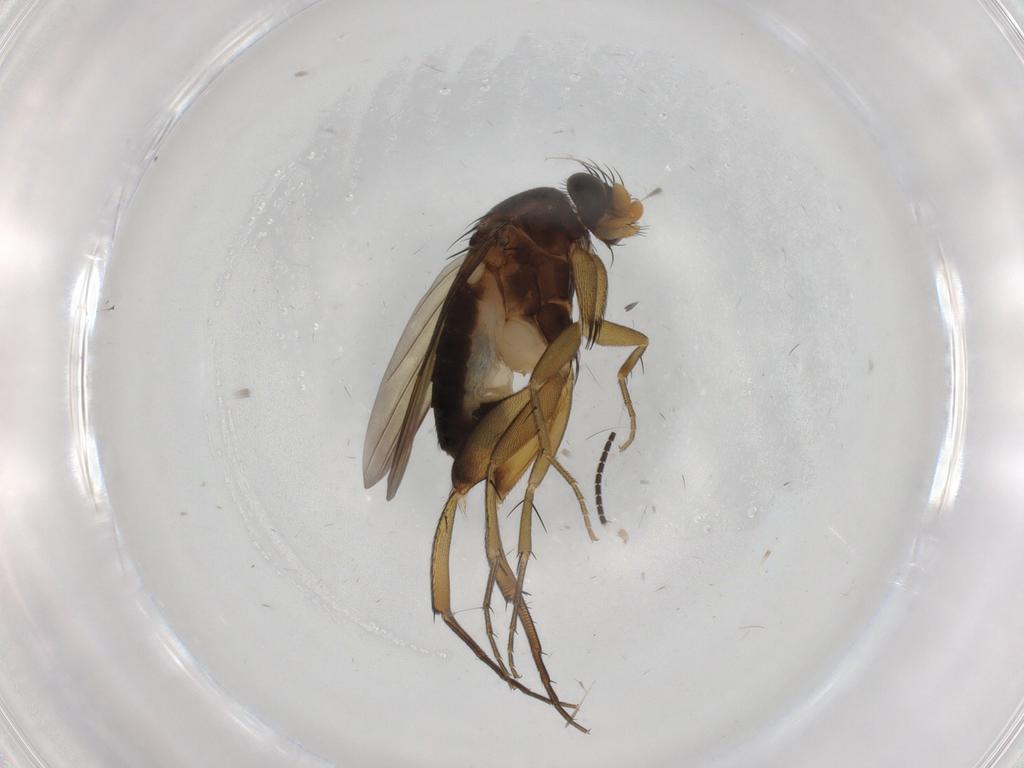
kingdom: Animalia
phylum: Arthropoda
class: Insecta
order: Diptera
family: Phoridae
